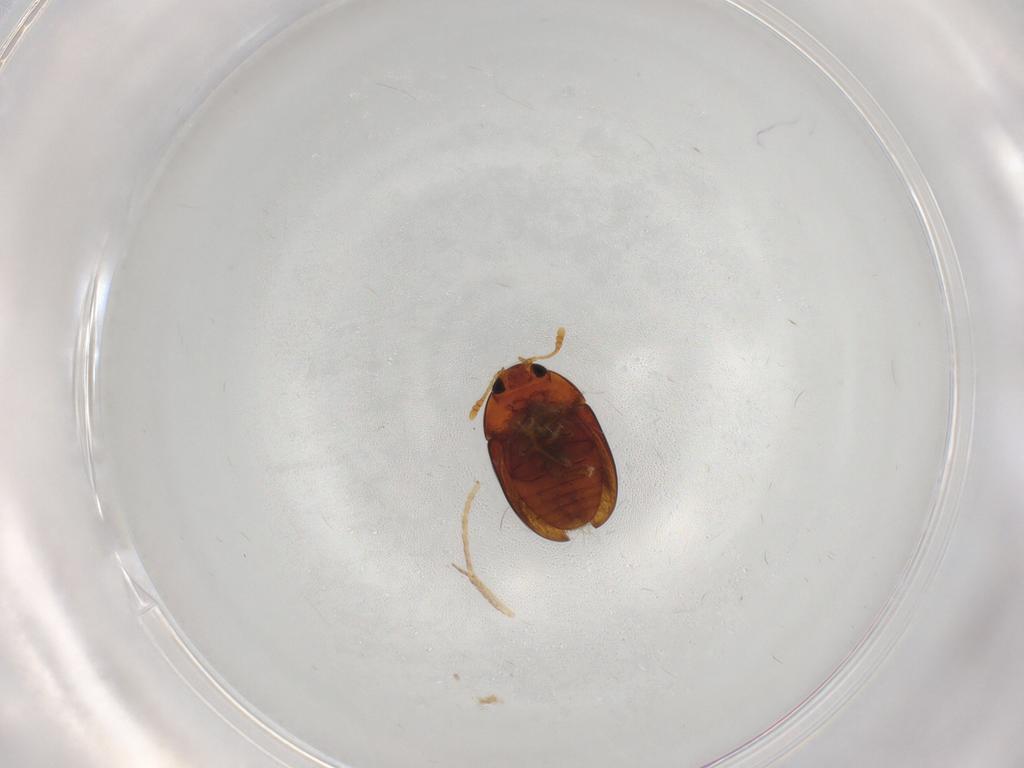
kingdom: Animalia
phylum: Arthropoda
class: Insecta
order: Coleoptera
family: Phalacridae
